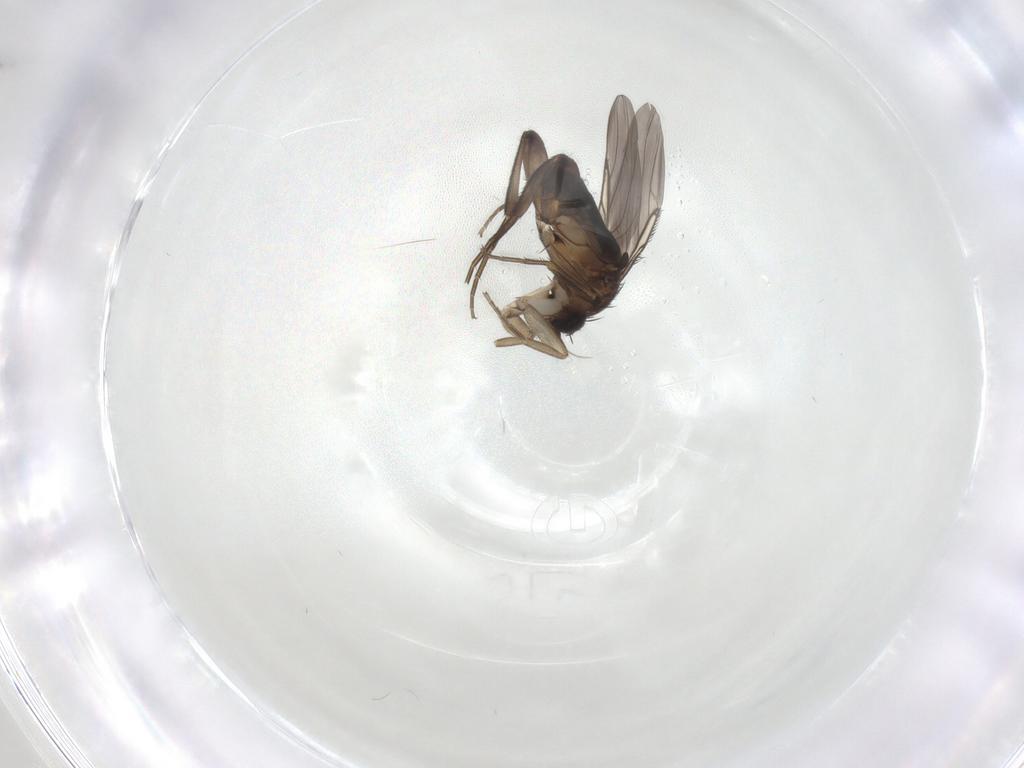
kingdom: Animalia
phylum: Arthropoda
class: Insecta
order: Diptera
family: Phoridae
